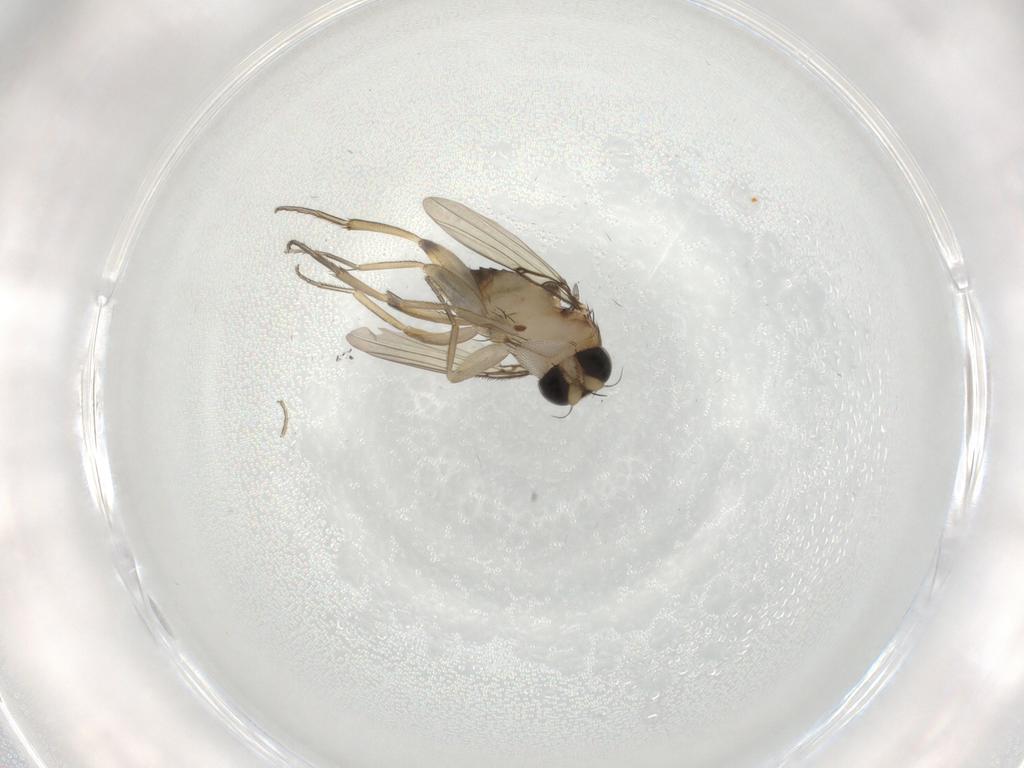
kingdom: Animalia
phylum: Arthropoda
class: Insecta
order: Diptera
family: Phoridae
